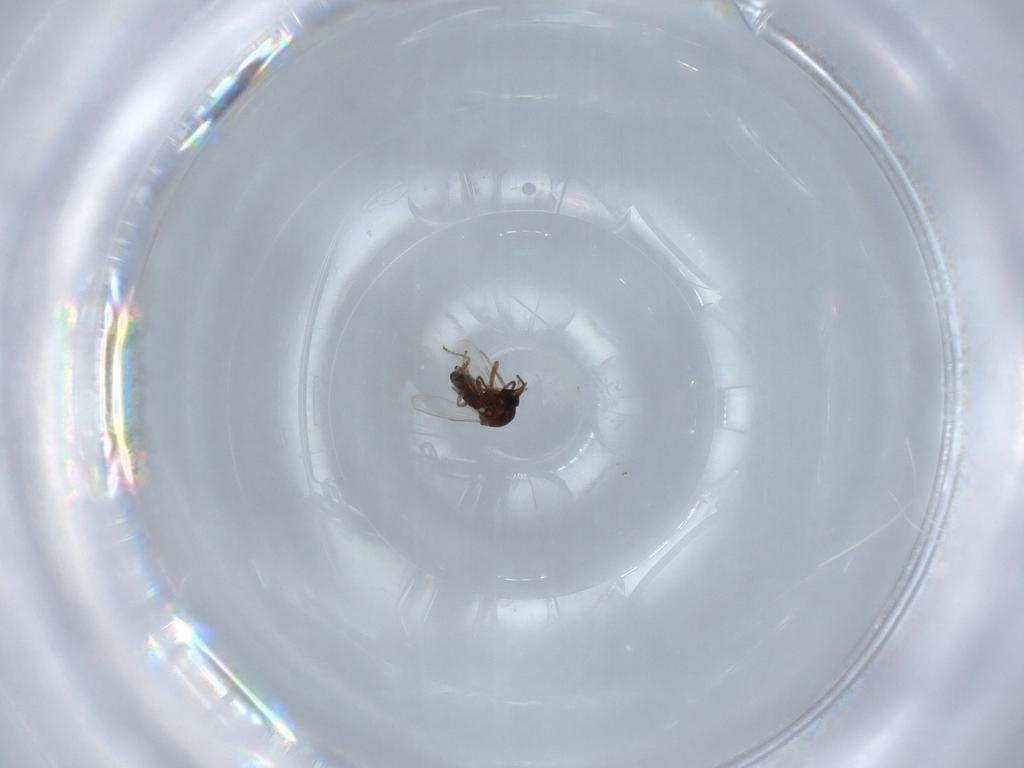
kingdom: Animalia
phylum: Arthropoda
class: Insecta
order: Diptera
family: Ceratopogonidae
